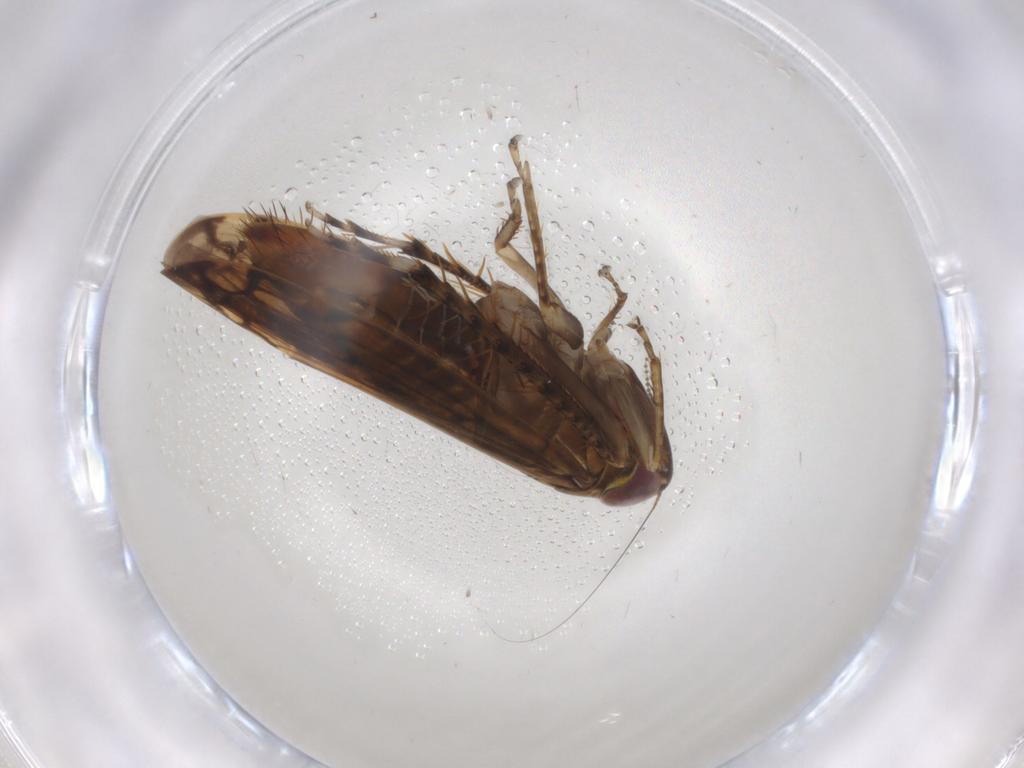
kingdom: Animalia
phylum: Arthropoda
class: Insecta
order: Hemiptera
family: Cicadellidae
